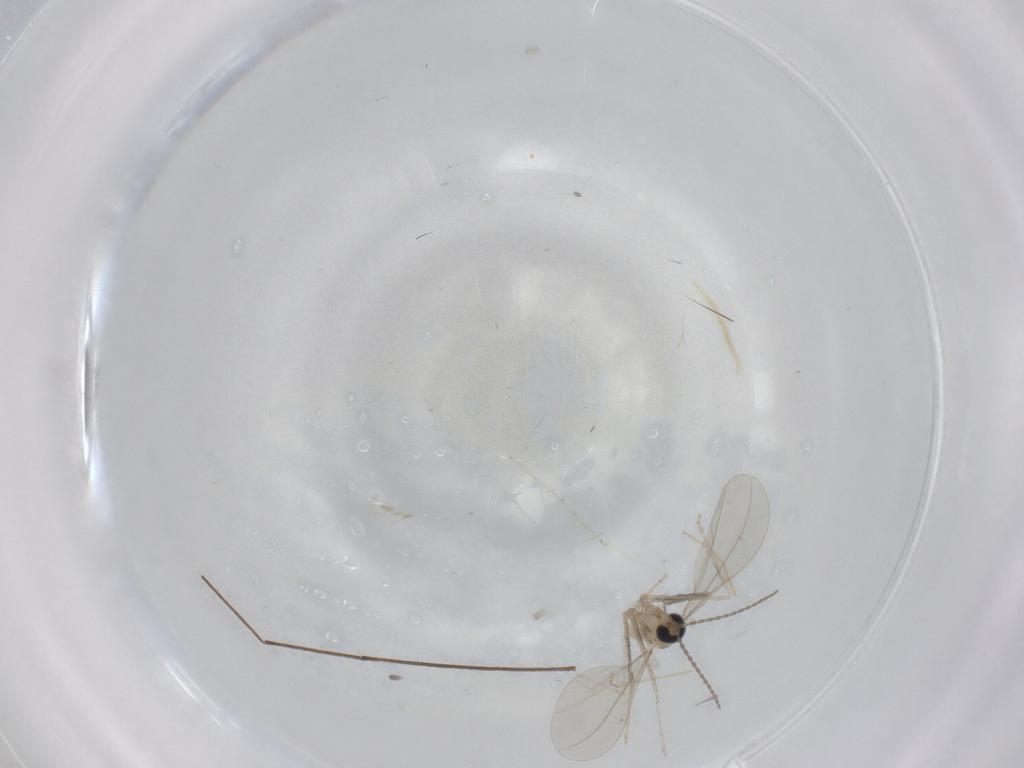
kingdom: Animalia
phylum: Arthropoda
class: Insecta
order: Diptera
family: Cecidomyiidae
